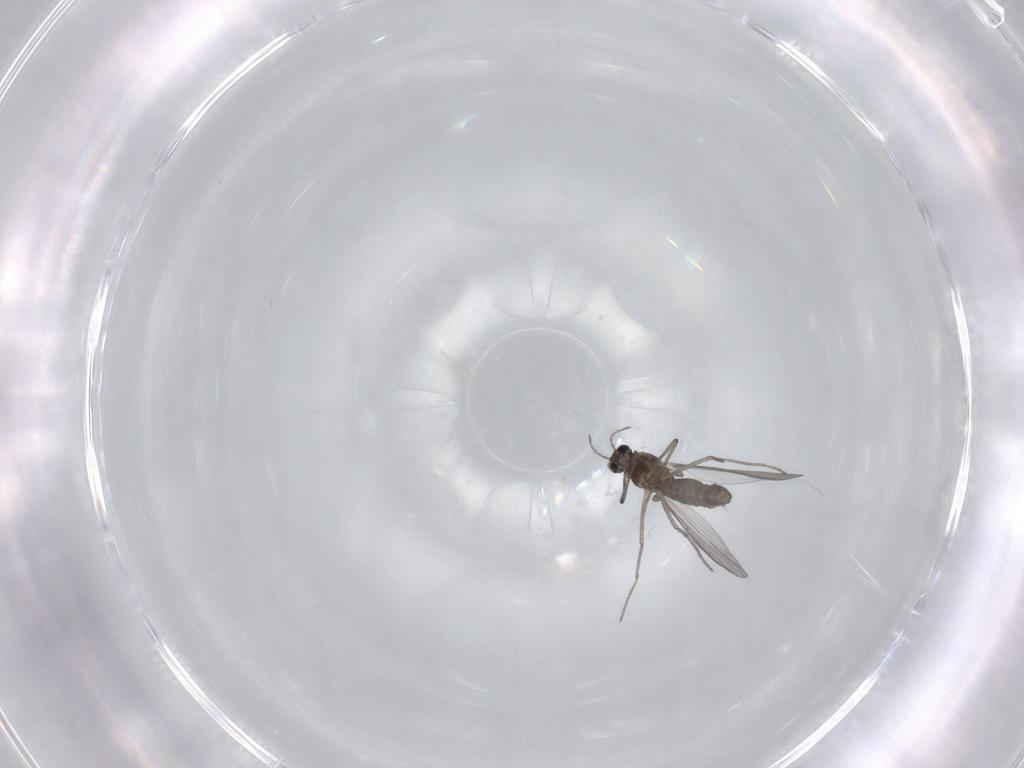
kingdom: Animalia
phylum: Arthropoda
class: Insecta
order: Diptera
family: Chironomidae
